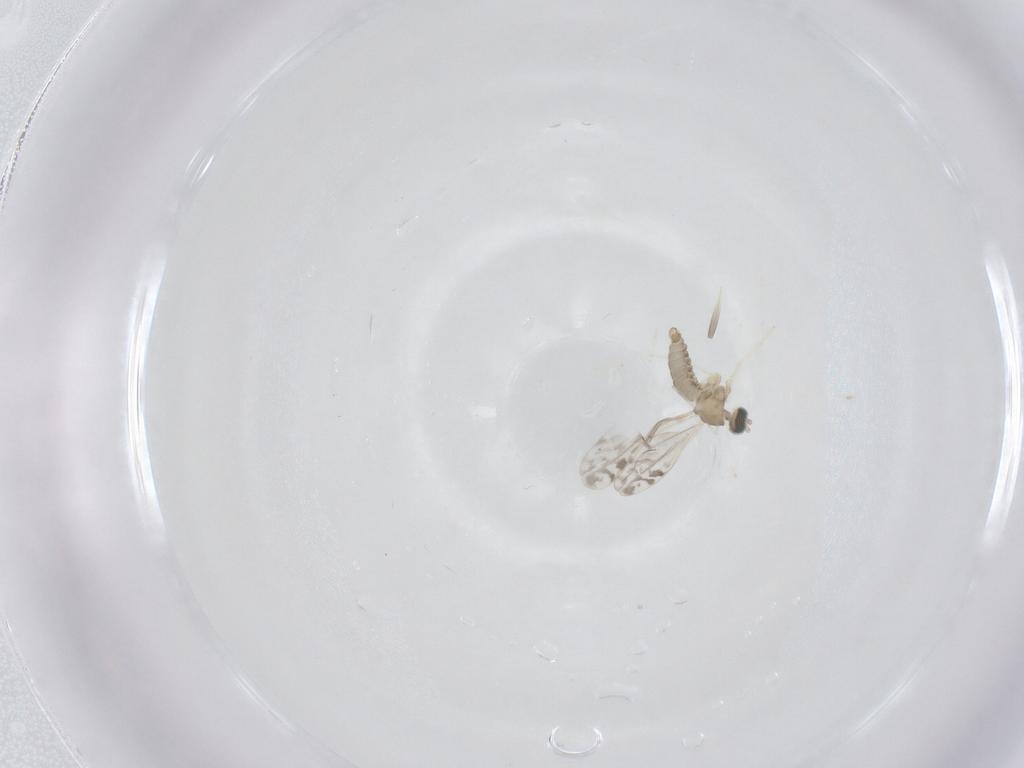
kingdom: Animalia
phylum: Arthropoda
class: Insecta
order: Diptera
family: Cecidomyiidae
